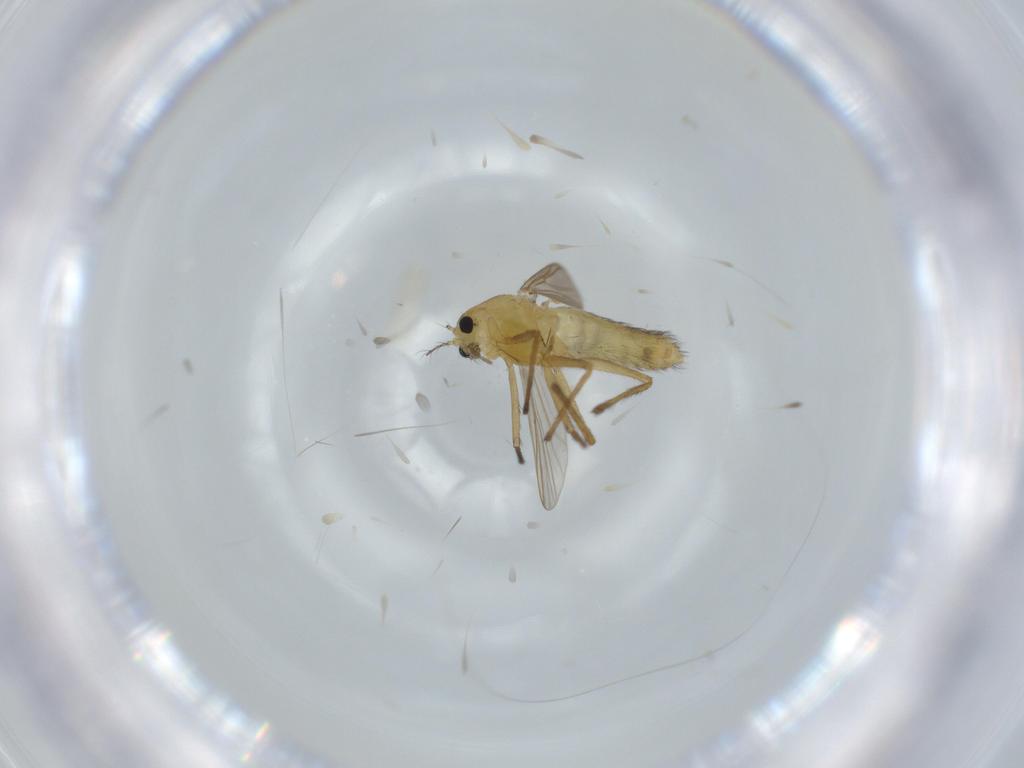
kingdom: Animalia
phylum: Arthropoda
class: Insecta
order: Diptera
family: Chironomidae
